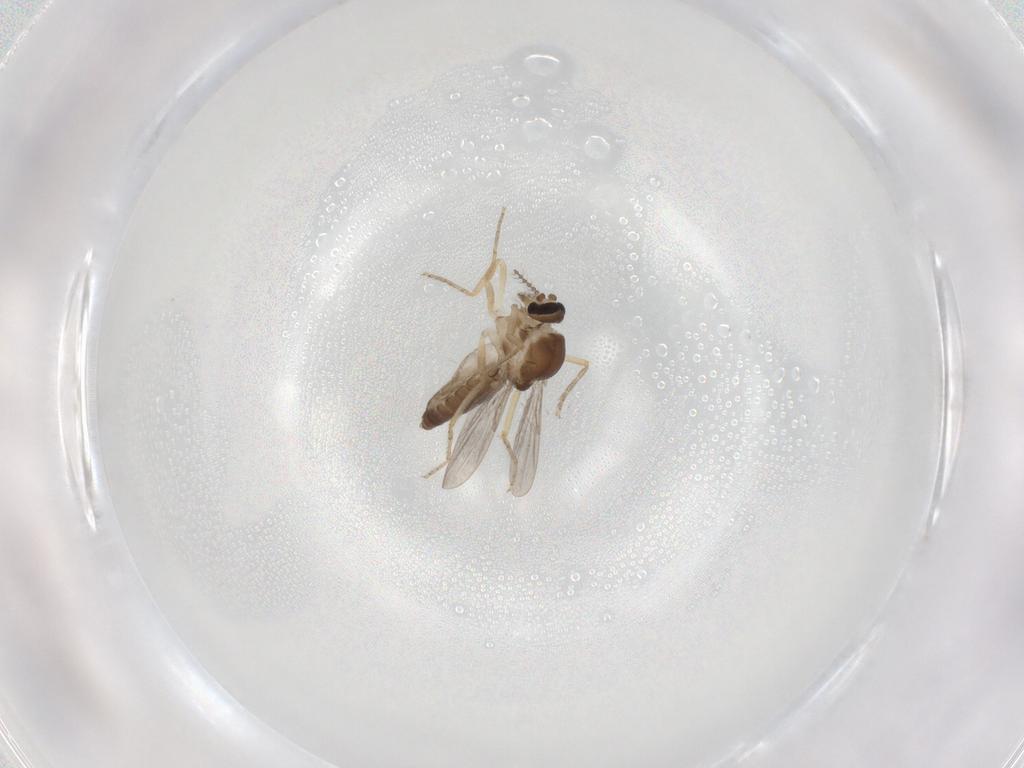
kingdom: Animalia
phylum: Arthropoda
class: Insecta
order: Diptera
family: Ceratopogonidae
